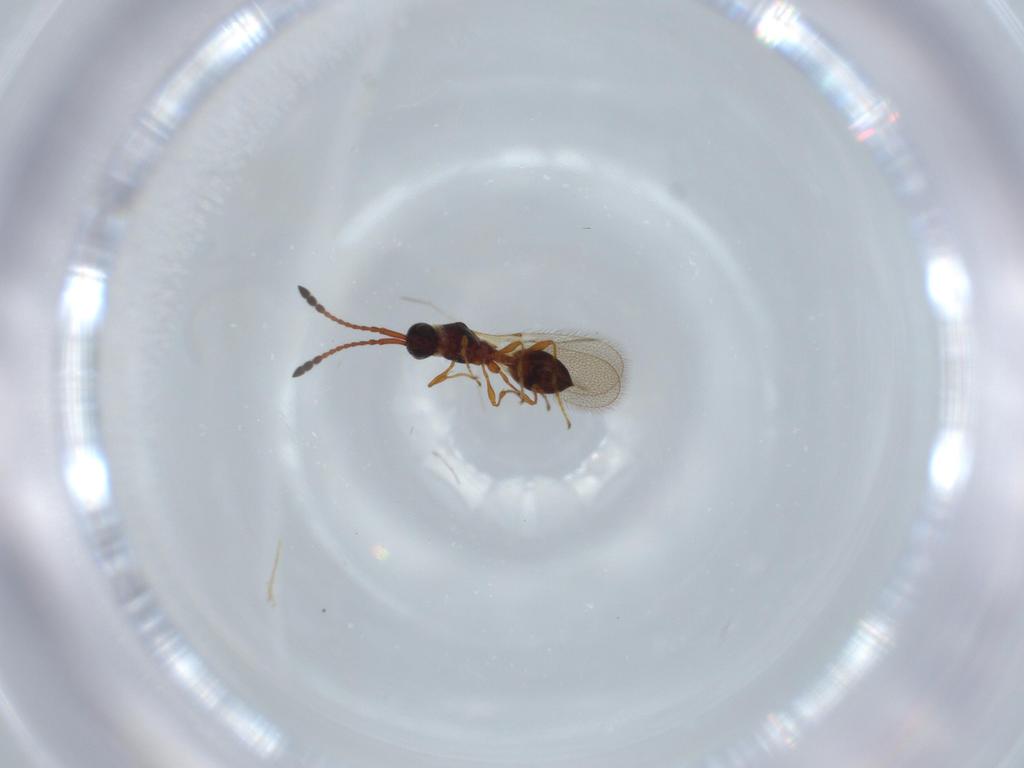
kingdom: Animalia
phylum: Arthropoda
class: Insecta
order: Hymenoptera
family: Diapriidae
